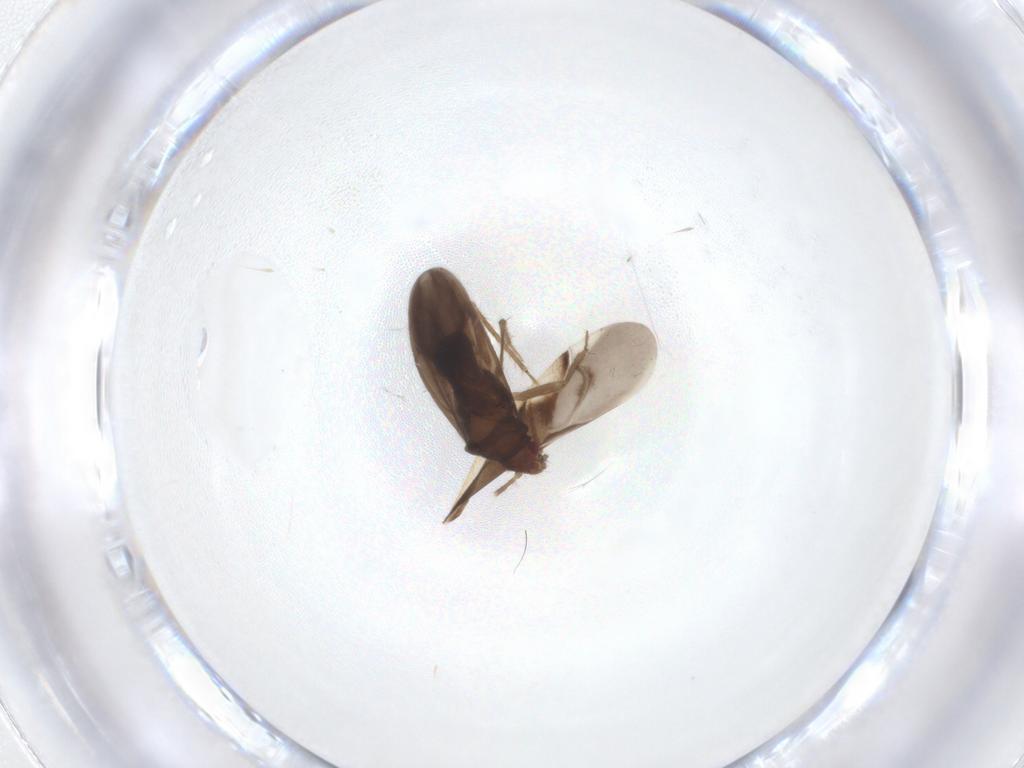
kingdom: Animalia
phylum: Arthropoda
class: Insecta
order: Hemiptera
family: Ceratocombidae
